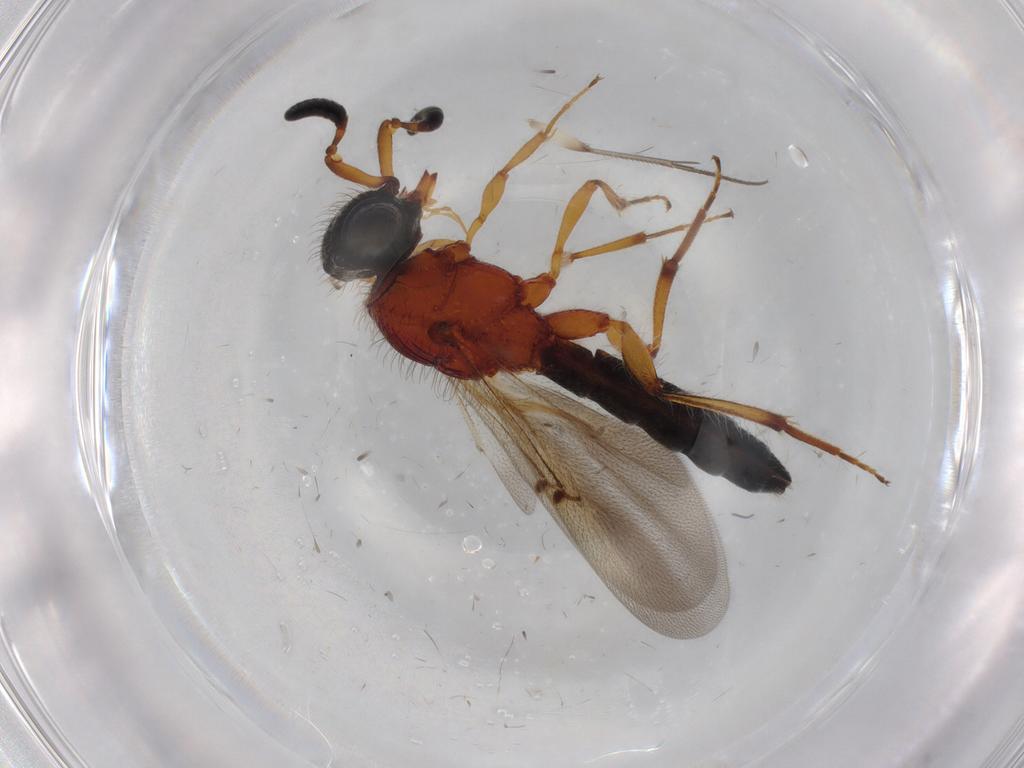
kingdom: Animalia
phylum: Arthropoda
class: Insecta
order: Hymenoptera
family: Scelionidae
